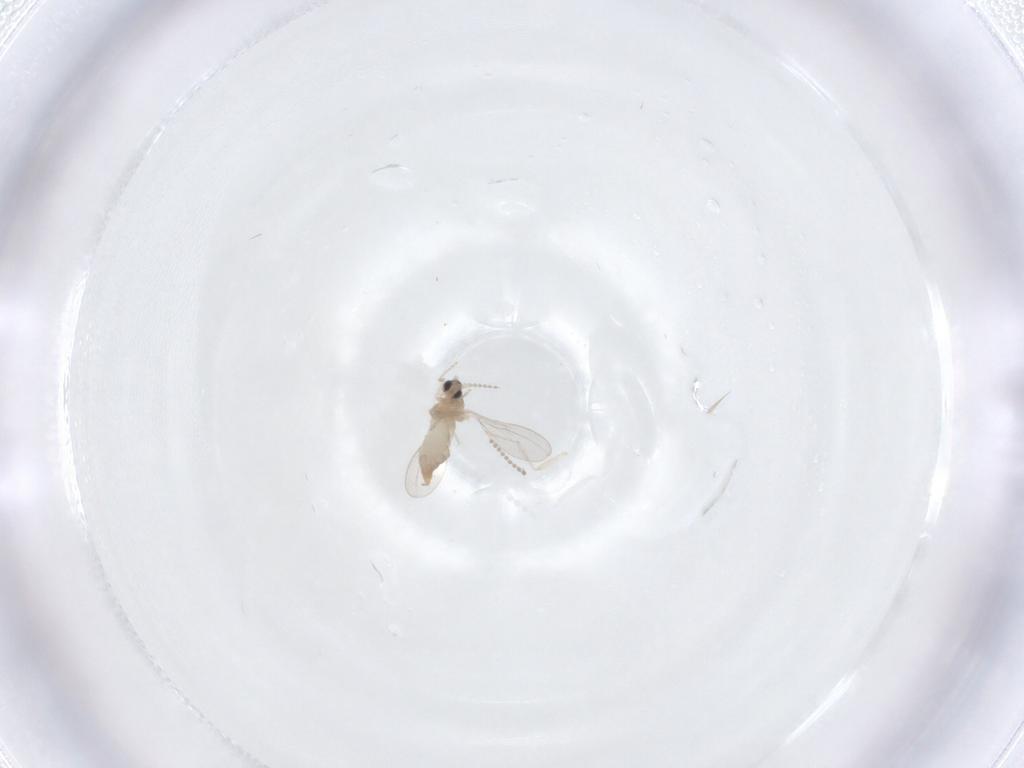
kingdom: Animalia
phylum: Arthropoda
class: Insecta
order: Diptera
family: Cecidomyiidae
